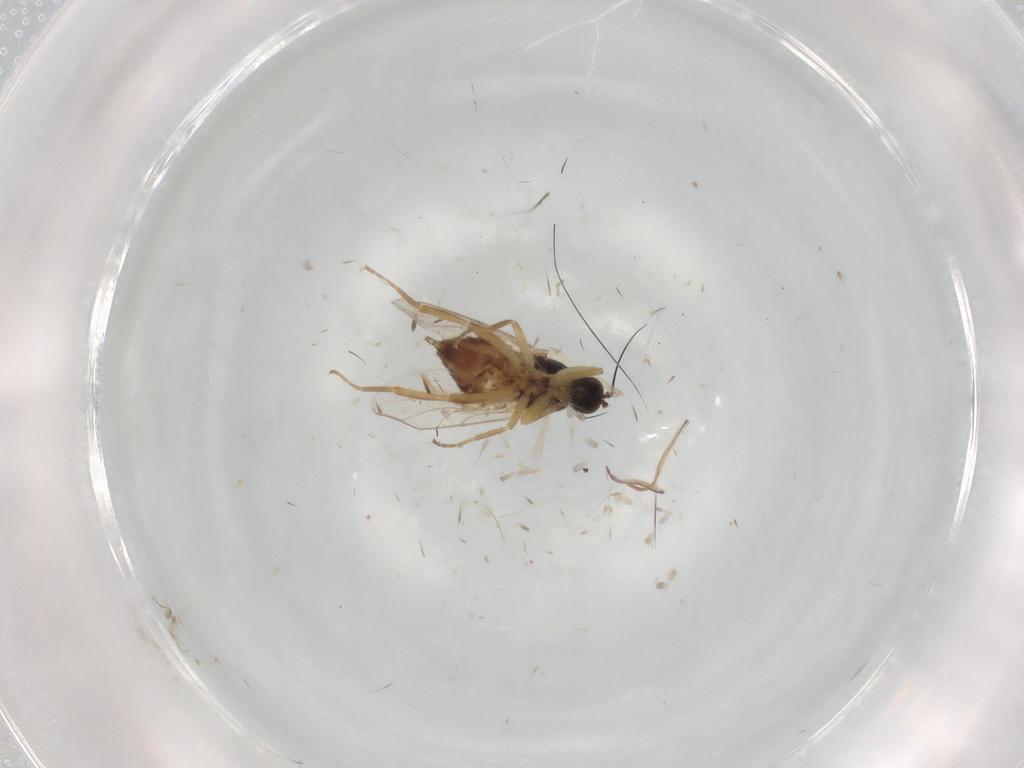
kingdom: Animalia
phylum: Arthropoda
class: Insecta
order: Diptera
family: Hybotidae
